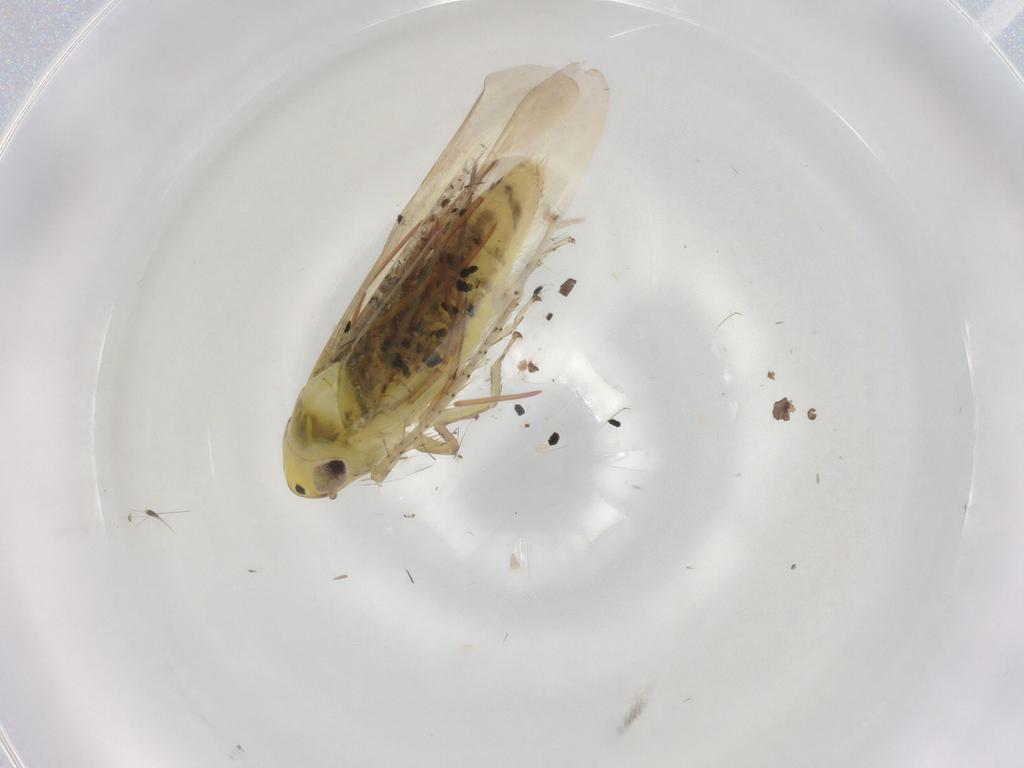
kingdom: Animalia
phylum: Arthropoda
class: Insecta
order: Hemiptera
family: Cicadellidae
